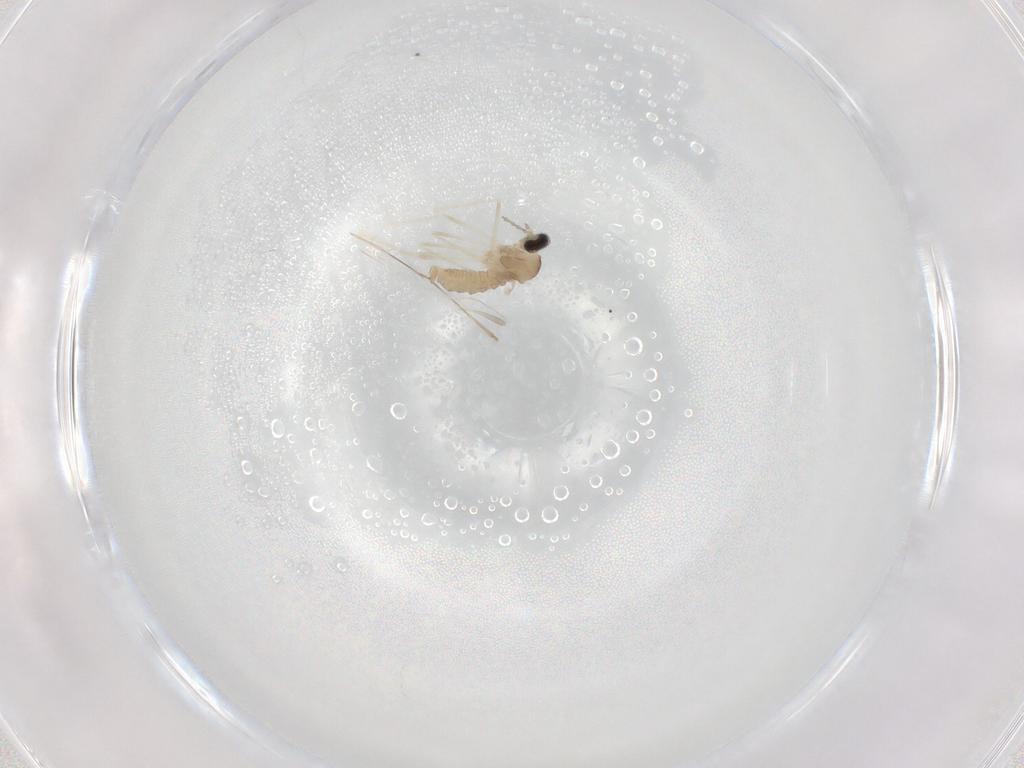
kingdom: Animalia
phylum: Arthropoda
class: Insecta
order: Diptera
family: Cecidomyiidae
